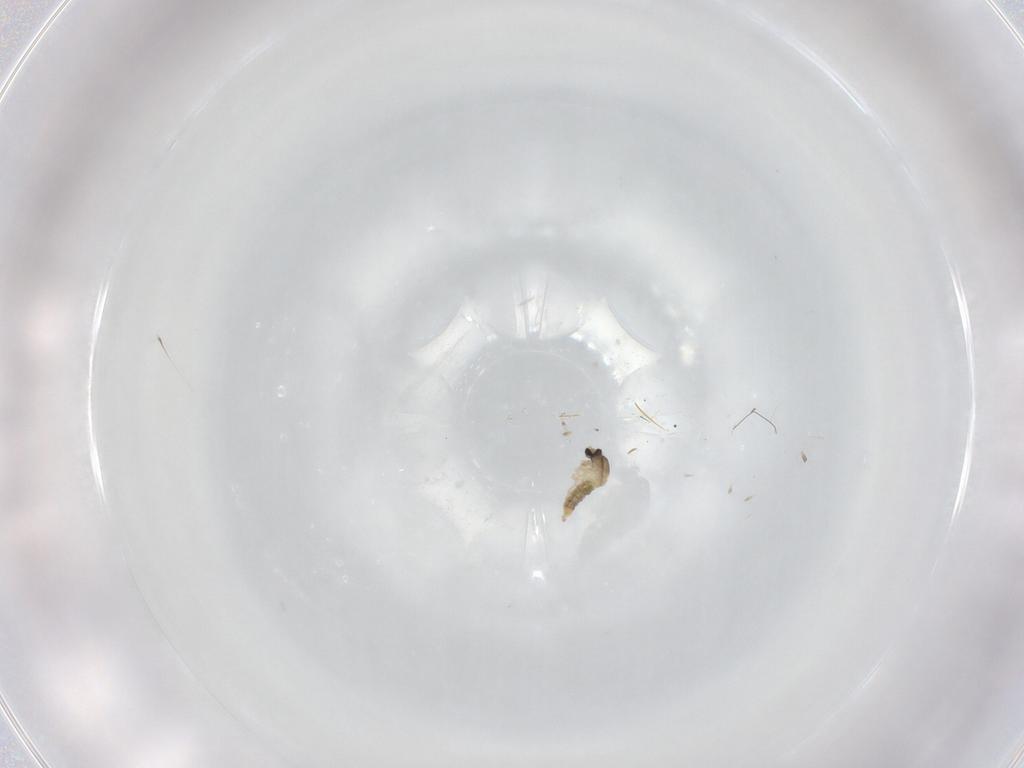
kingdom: Animalia
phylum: Arthropoda
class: Insecta
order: Diptera
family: Cecidomyiidae
